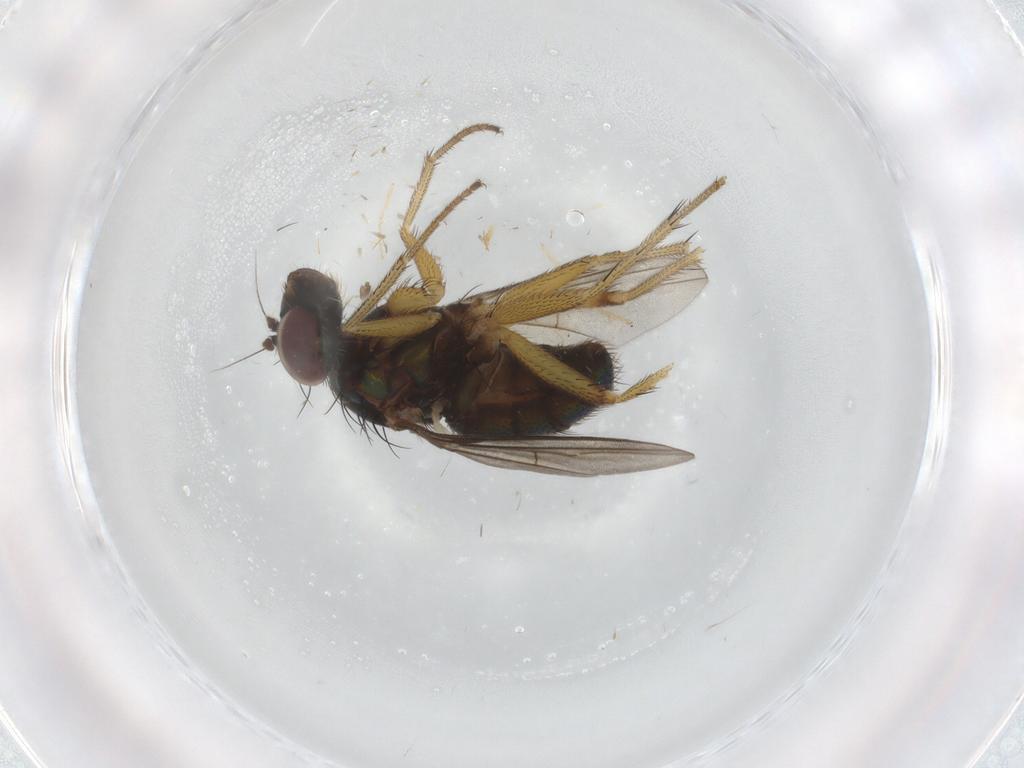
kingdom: Animalia
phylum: Arthropoda
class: Insecta
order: Diptera
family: Dolichopodidae
